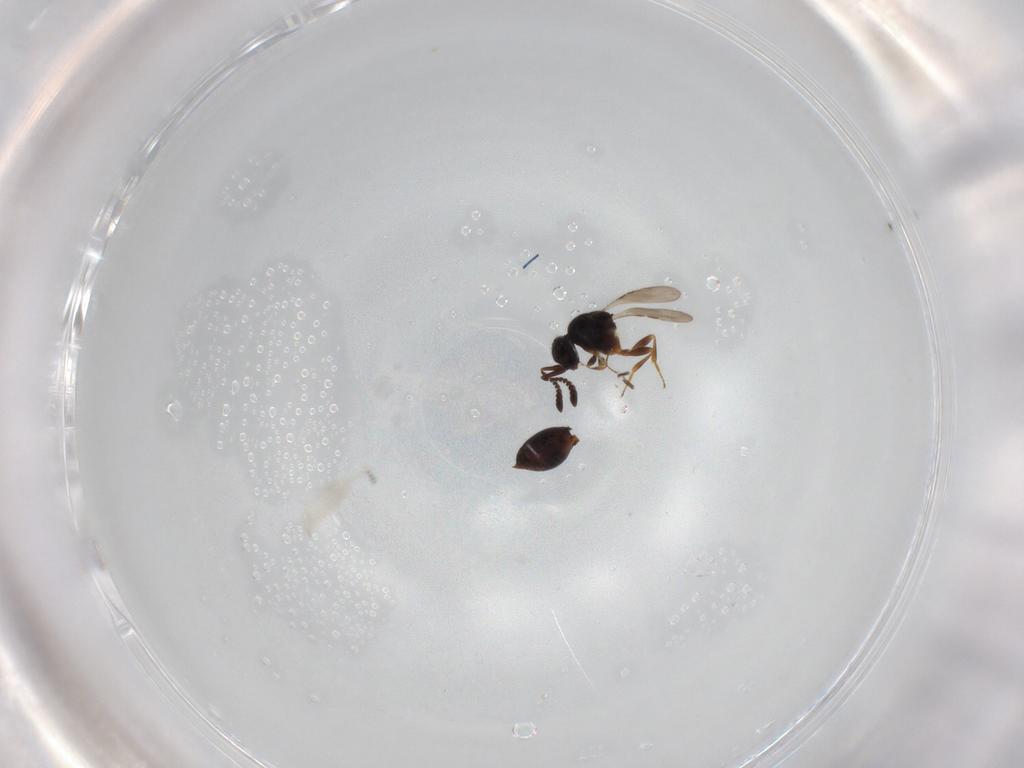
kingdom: Animalia
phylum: Arthropoda
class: Insecta
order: Hymenoptera
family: Ceraphronidae
